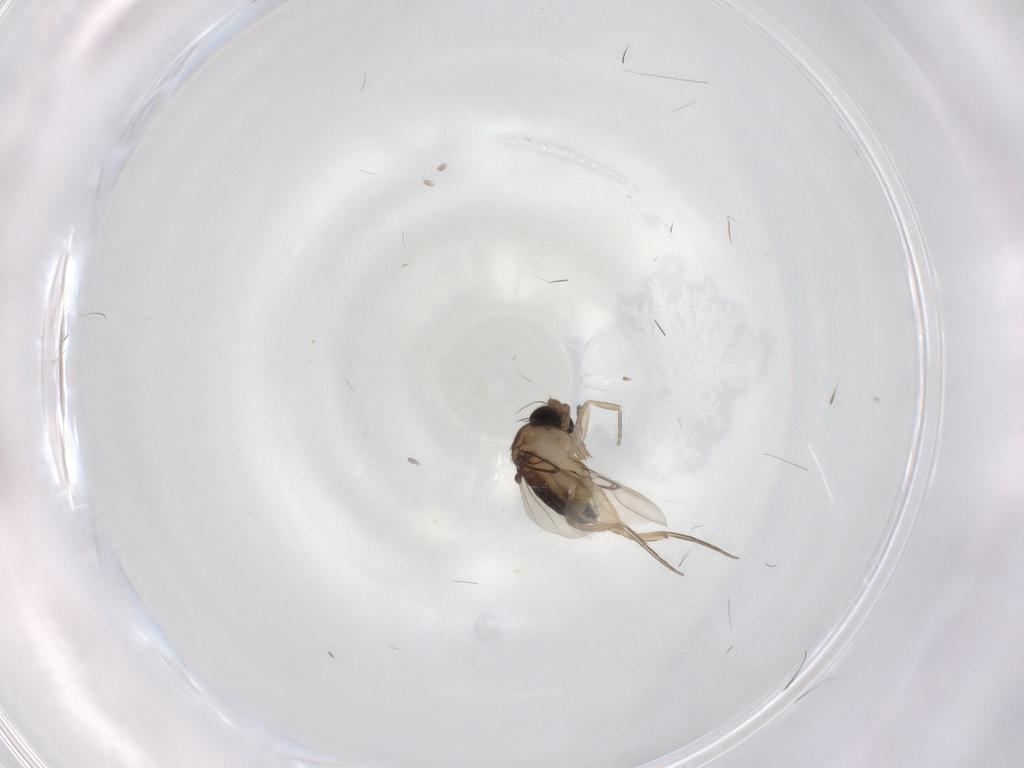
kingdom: Animalia
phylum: Arthropoda
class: Insecta
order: Diptera
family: Phoridae
